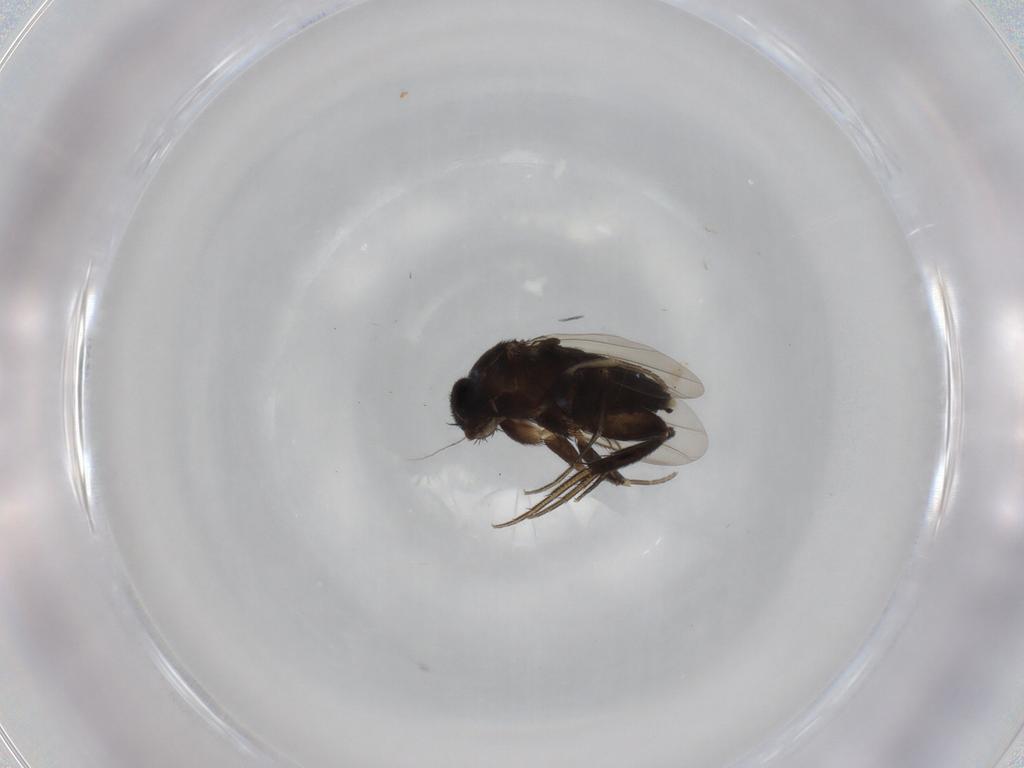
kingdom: Animalia
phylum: Arthropoda
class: Insecta
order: Diptera
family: Phoridae
